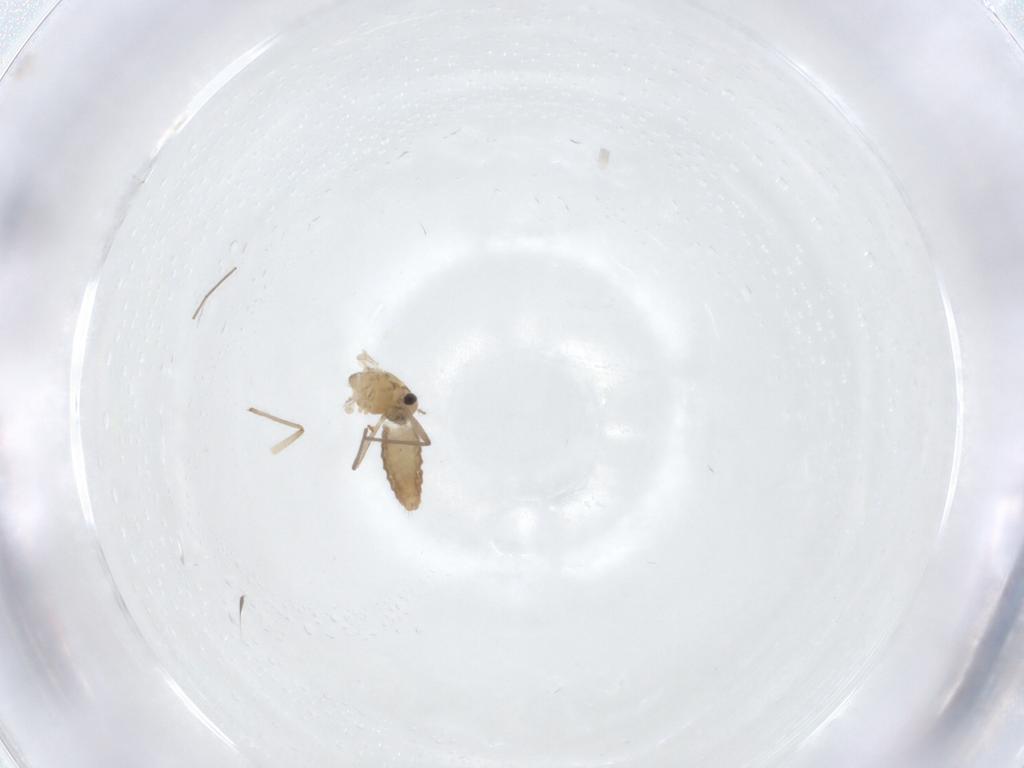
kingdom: Animalia
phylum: Arthropoda
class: Insecta
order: Diptera
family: Chironomidae
